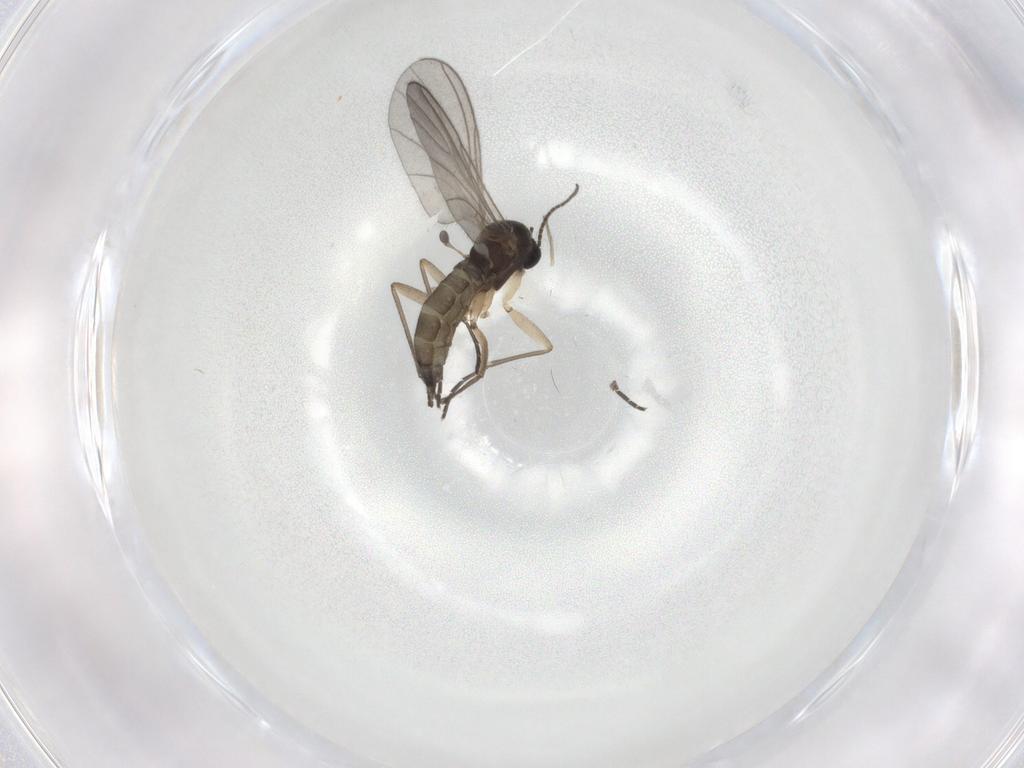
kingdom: Animalia
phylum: Arthropoda
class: Insecta
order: Diptera
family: Sciaridae
